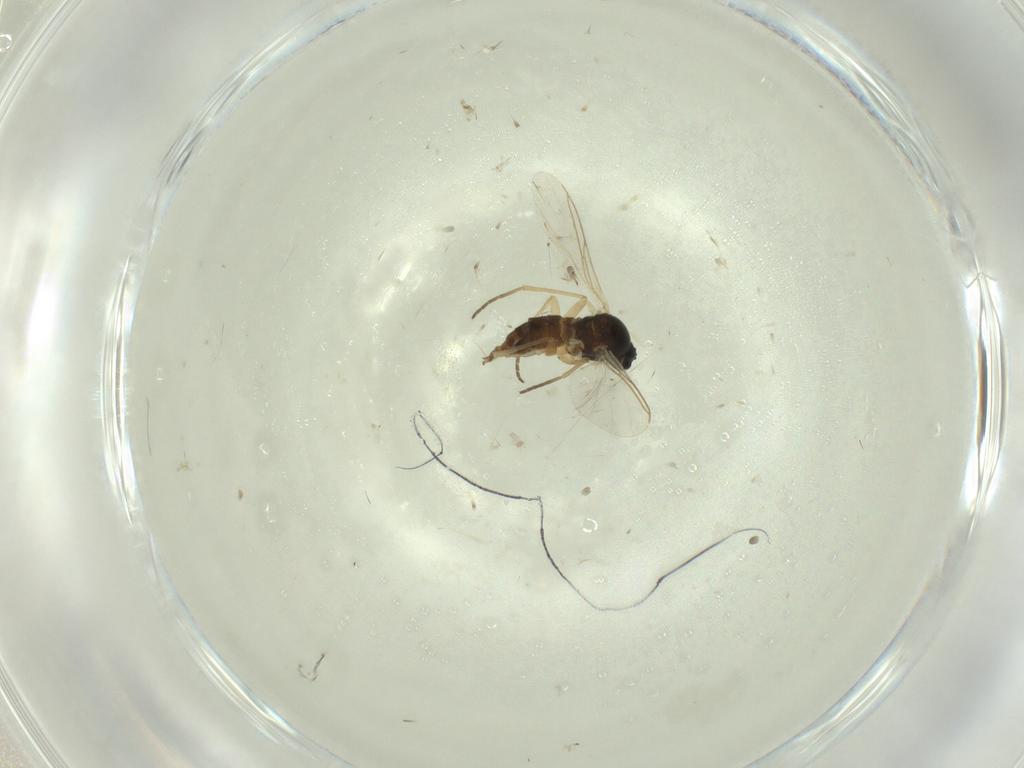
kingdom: Animalia
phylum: Arthropoda
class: Insecta
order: Diptera
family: Sciaridae
